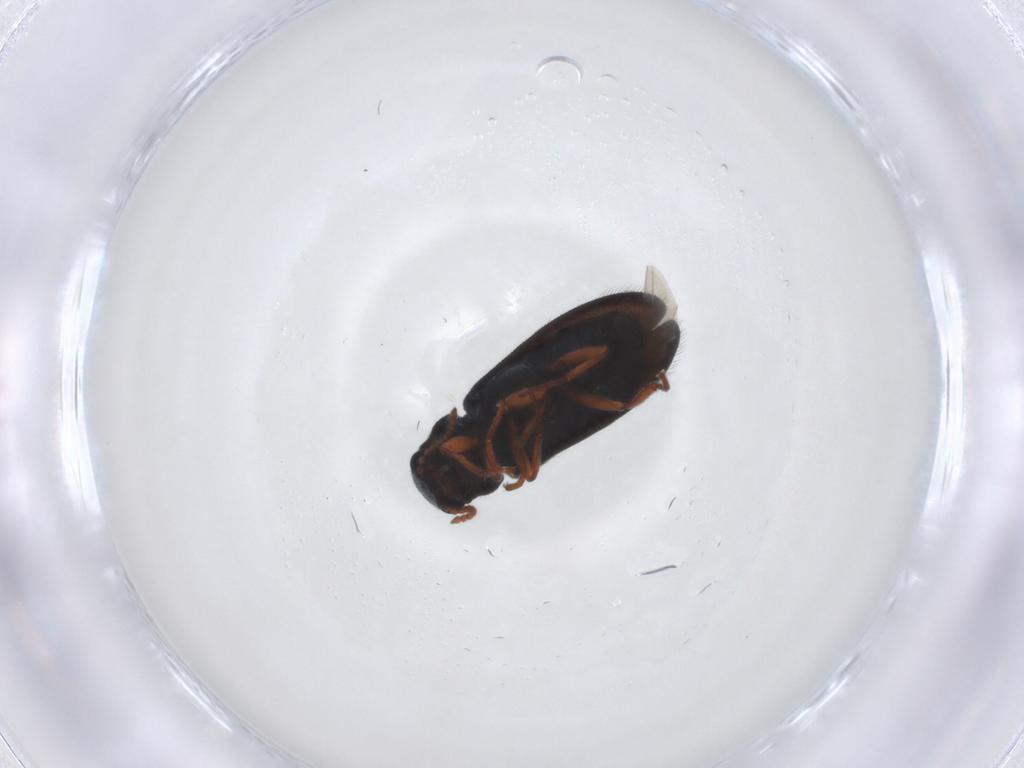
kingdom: Animalia
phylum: Arthropoda
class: Insecta
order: Coleoptera
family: Melyridae
